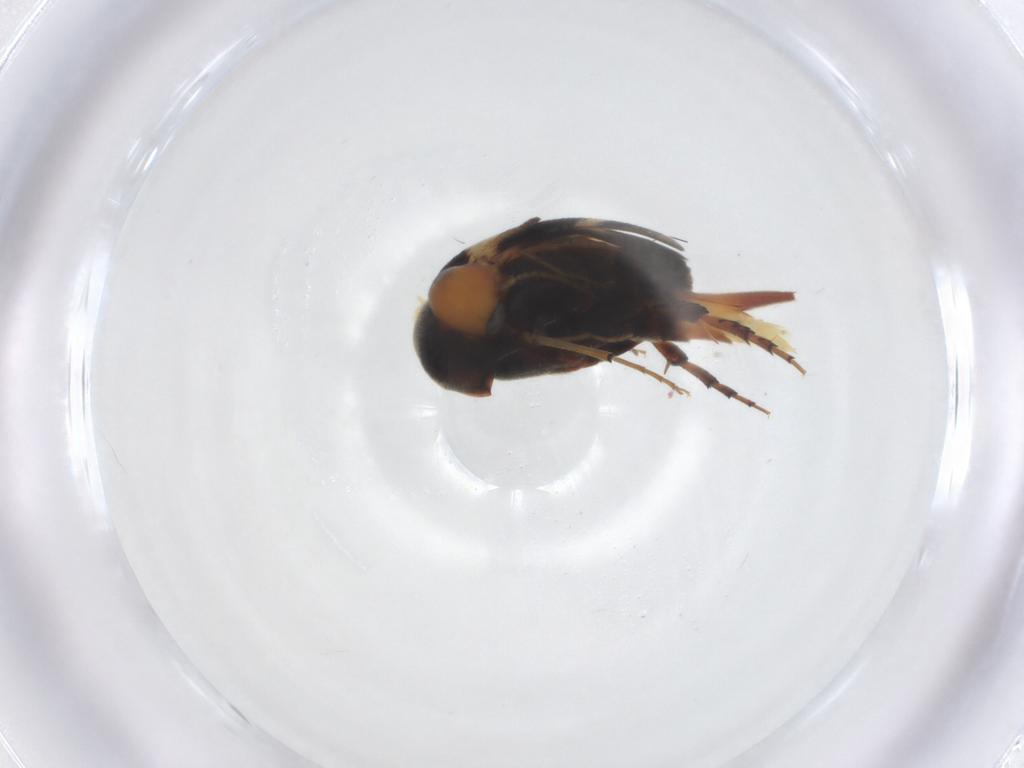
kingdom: Animalia
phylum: Arthropoda
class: Insecta
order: Coleoptera
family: Mordellidae
